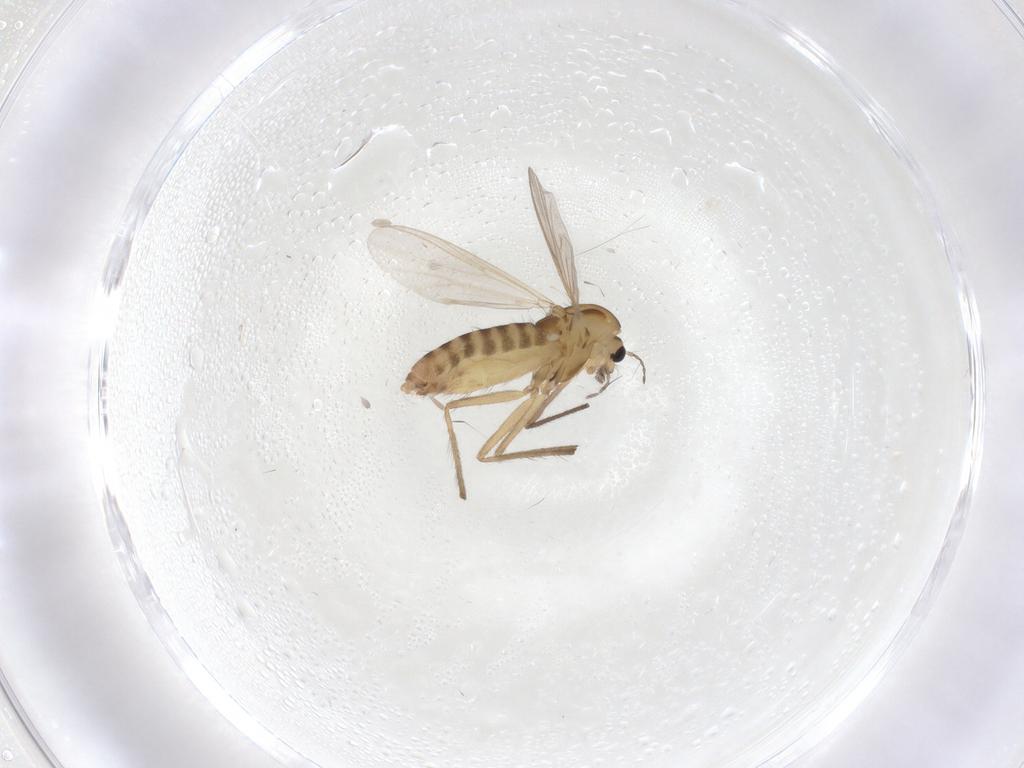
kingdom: Animalia
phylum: Arthropoda
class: Insecta
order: Diptera
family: Chironomidae
